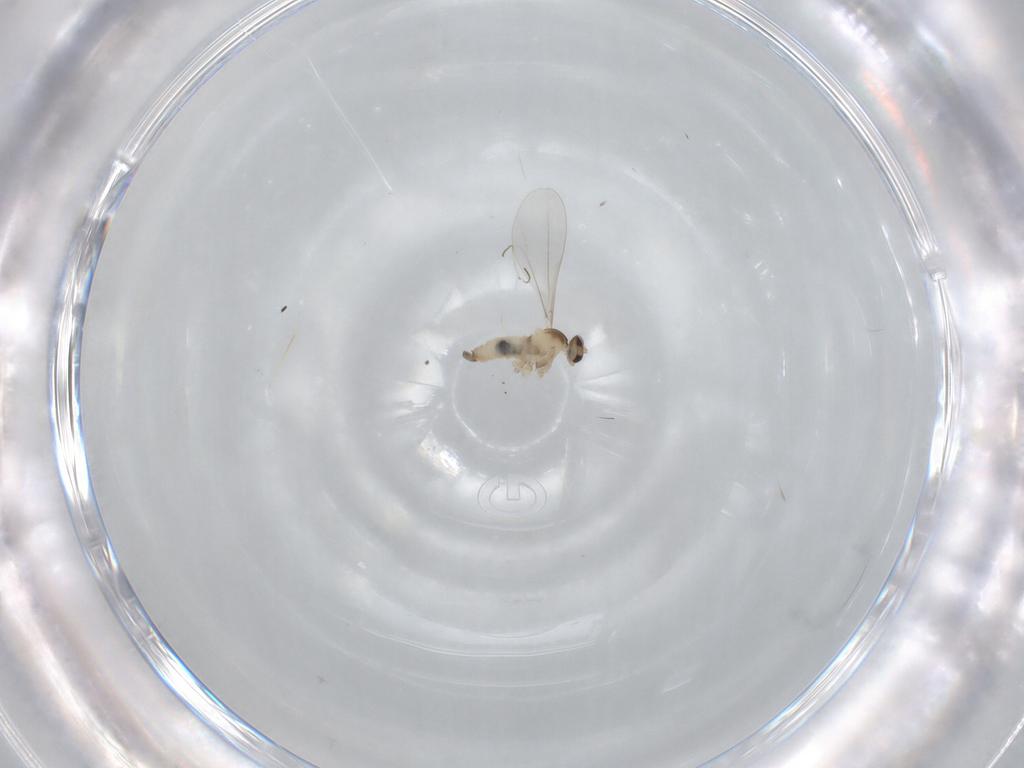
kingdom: Animalia
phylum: Arthropoda
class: Insecta
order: Diptera
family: Cecidomyiidae
